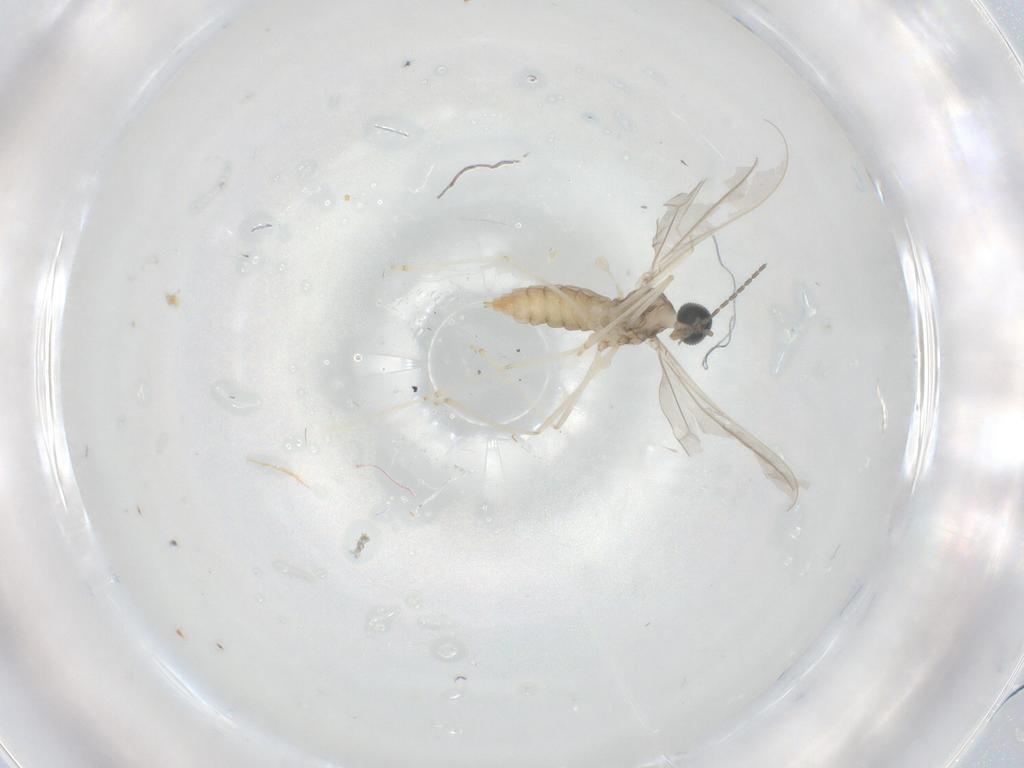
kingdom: Animalia
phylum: Arthropoda
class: Insecta
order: Diptera
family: Cecidomyiidae
